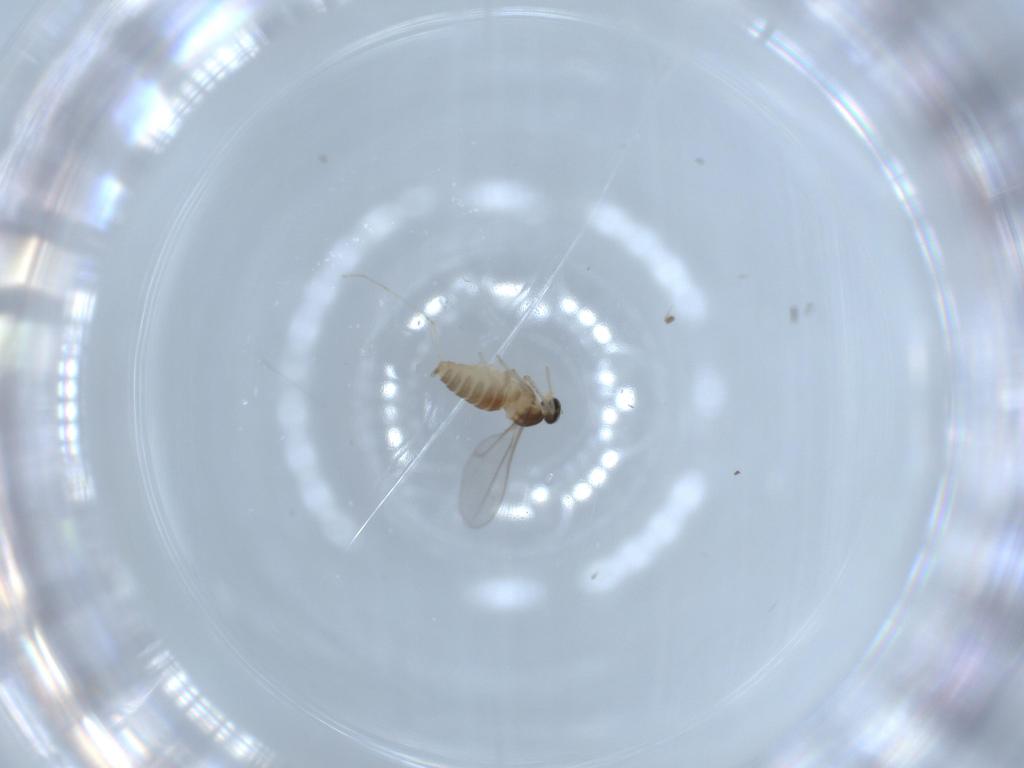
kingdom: Animalia
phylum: Arthropoda
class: Insecta
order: Diptera
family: Cecidomyiidae
